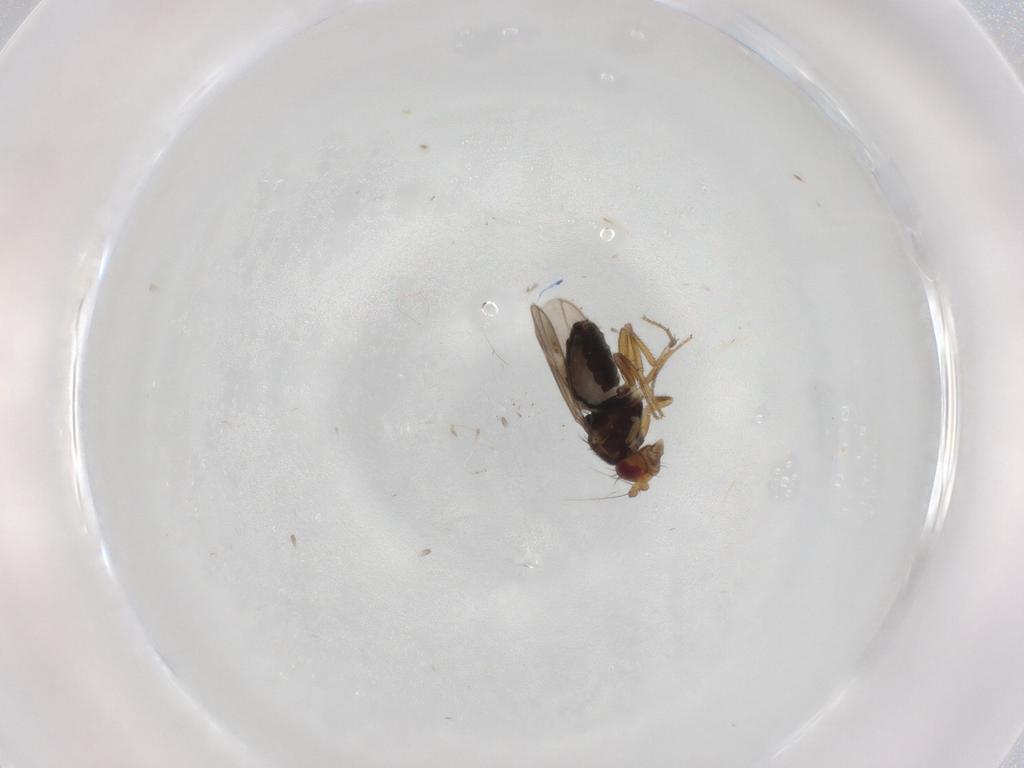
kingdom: Animalia
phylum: Arthropoda
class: Insecta
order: Diptera
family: Sphaeroceridae
